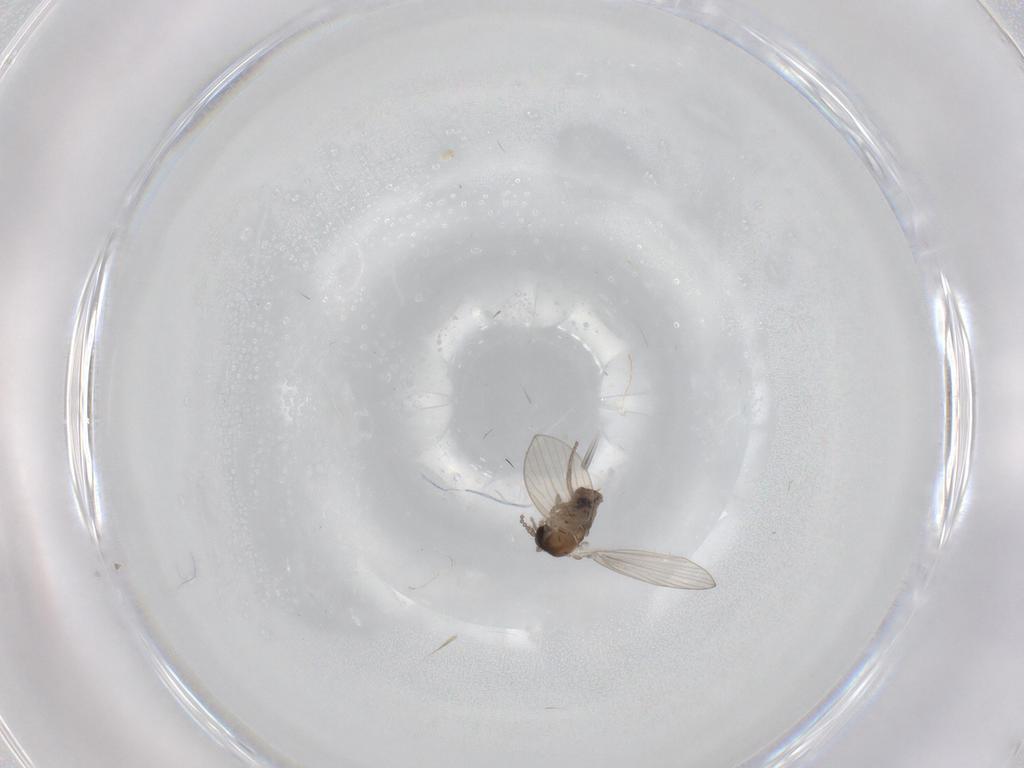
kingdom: Animalia
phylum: Arthropoda
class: Insecta
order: Diptera
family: Psychodidae
